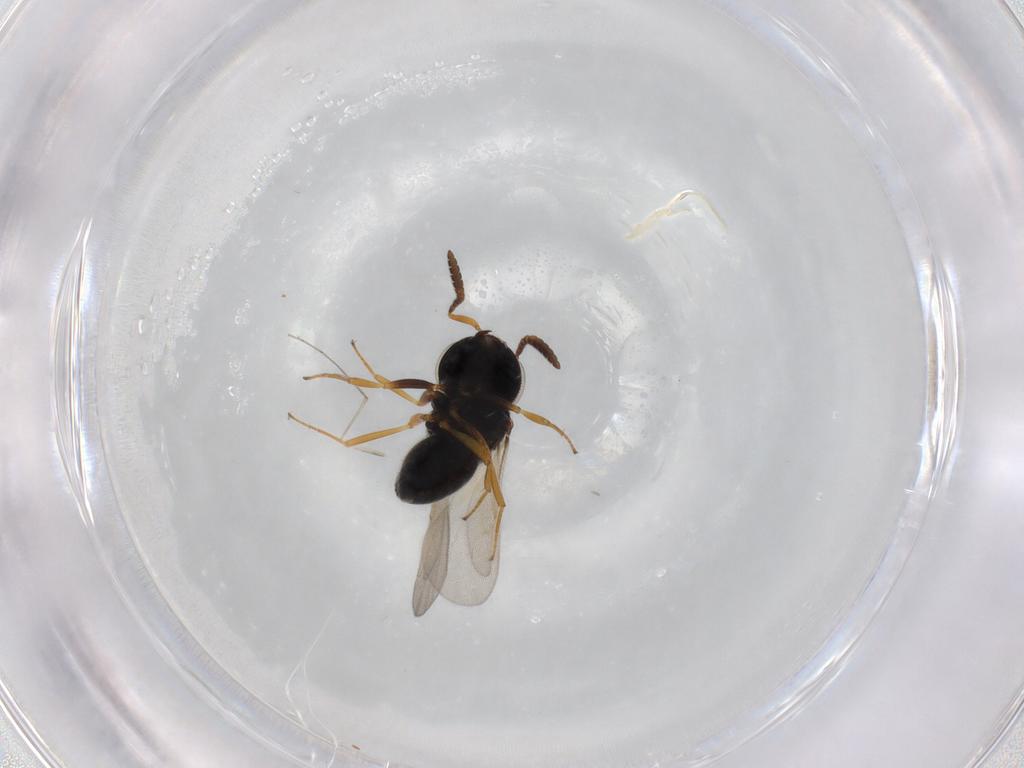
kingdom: Animalia
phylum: Arthropoda
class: Insecta
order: Hymenoptera
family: Scelionidae
